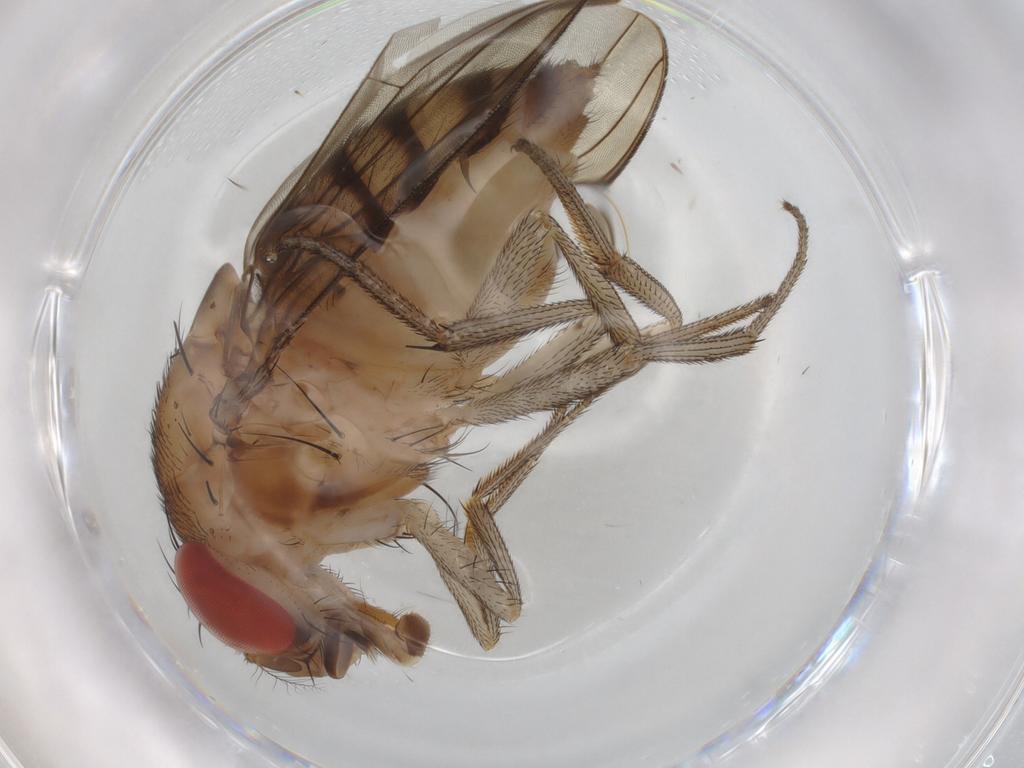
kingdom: Animalia
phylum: Arthropoda
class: Insecta
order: Diptera
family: Drosophilidae
